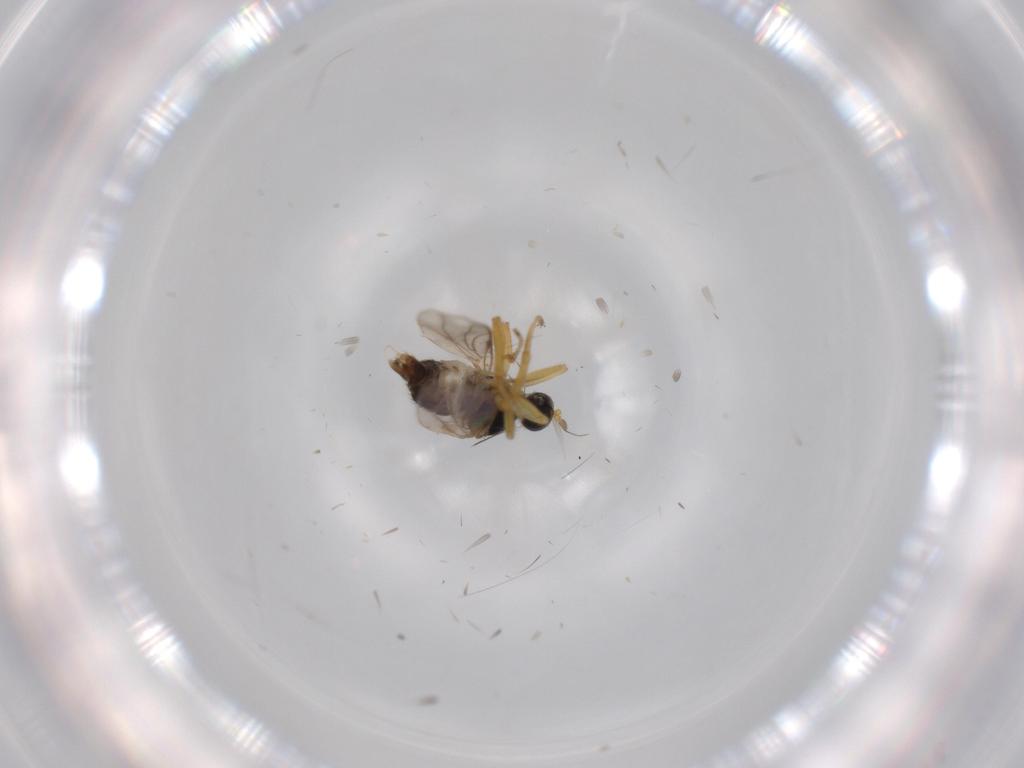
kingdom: Animalia
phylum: Arthropoda
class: Insecta
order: Diptera
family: Hybotidae
